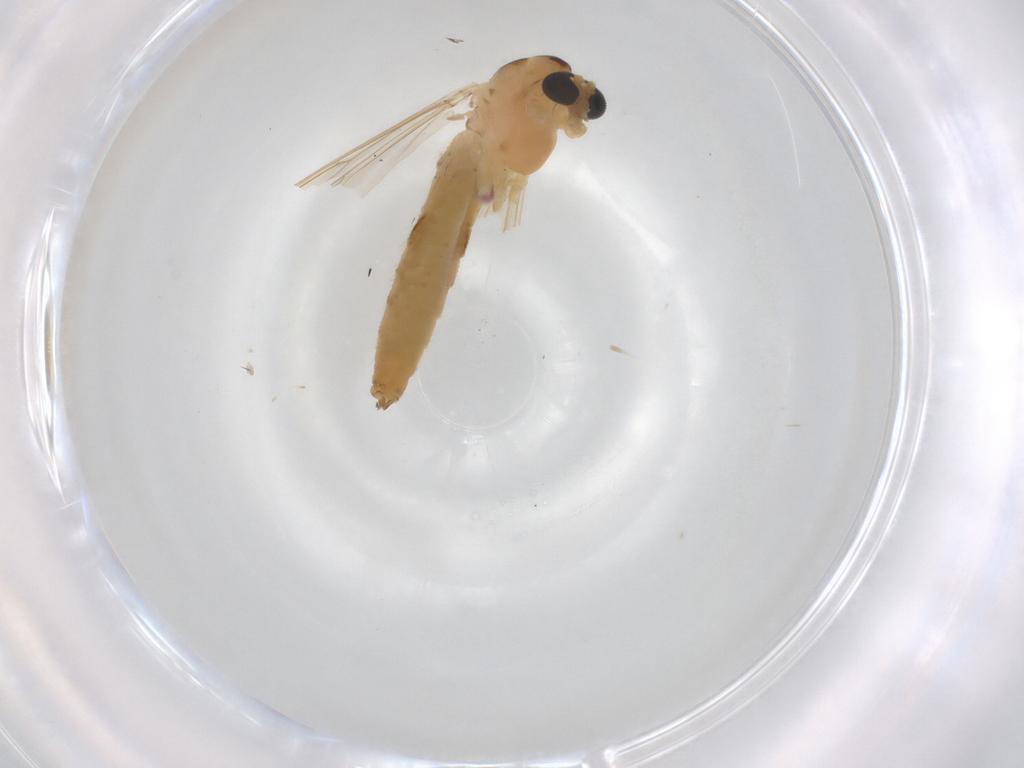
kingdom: Animalia
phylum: Arthropoda
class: Insecta
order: Diptera
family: Chironomidae
